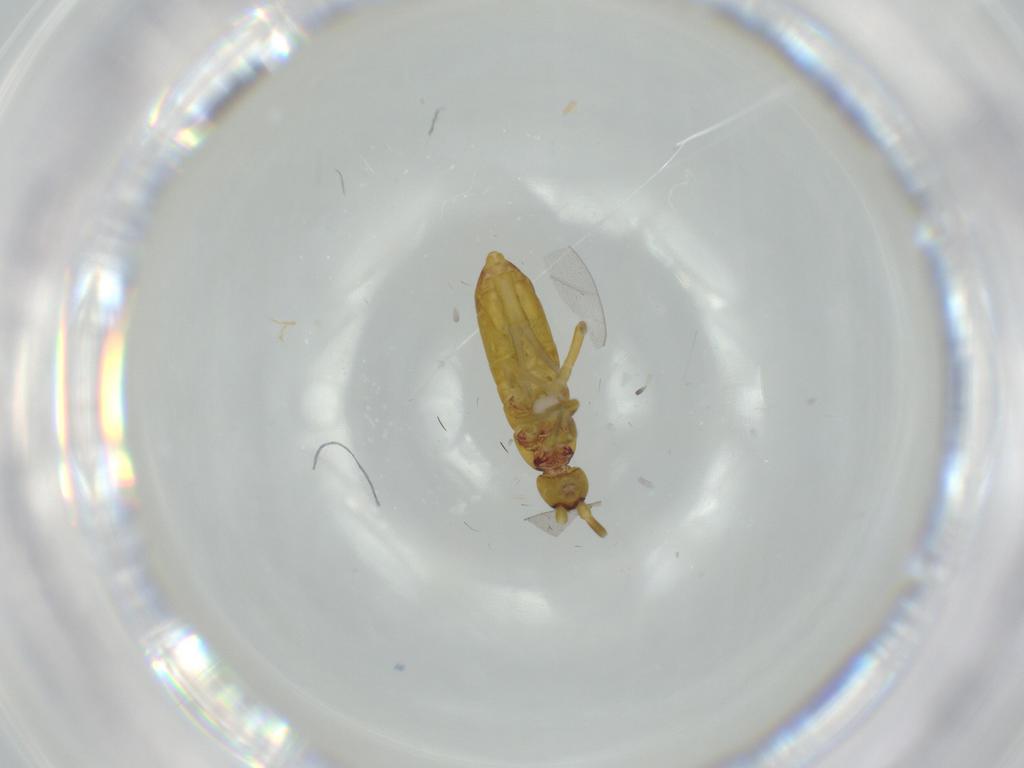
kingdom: Animalia
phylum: Arthropoda
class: Collembola
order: Entomobryomorpha
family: Tomoceridae
